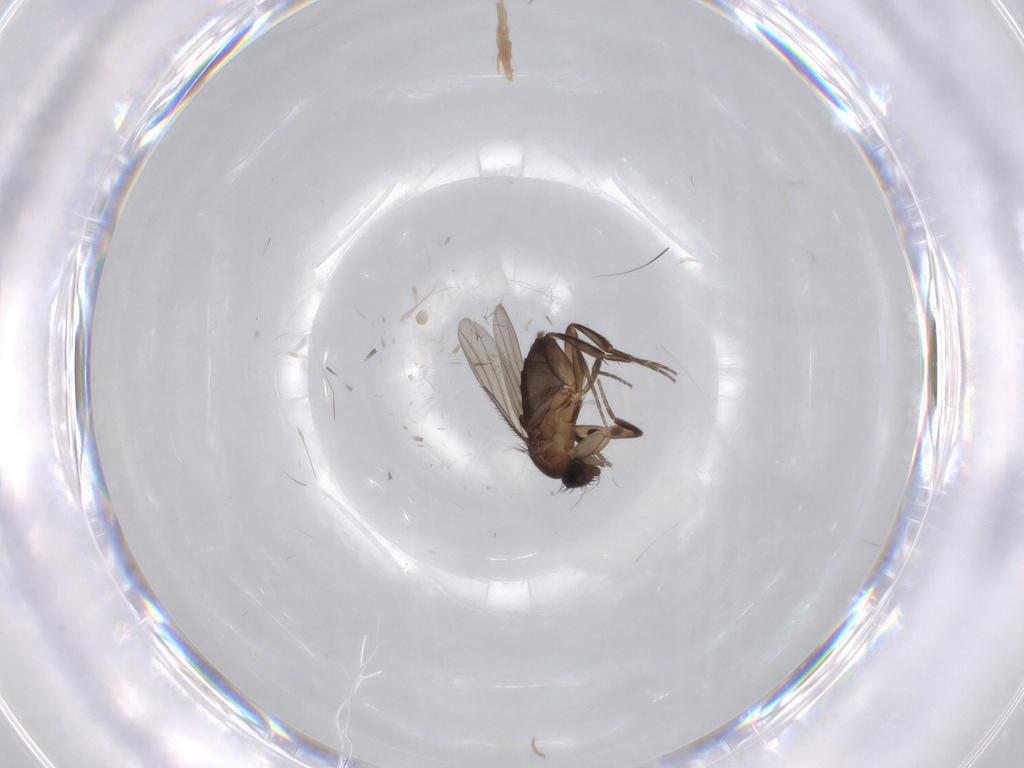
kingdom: Animalia
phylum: Arthropoda
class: Insecta
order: Diptera
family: Phoridae
